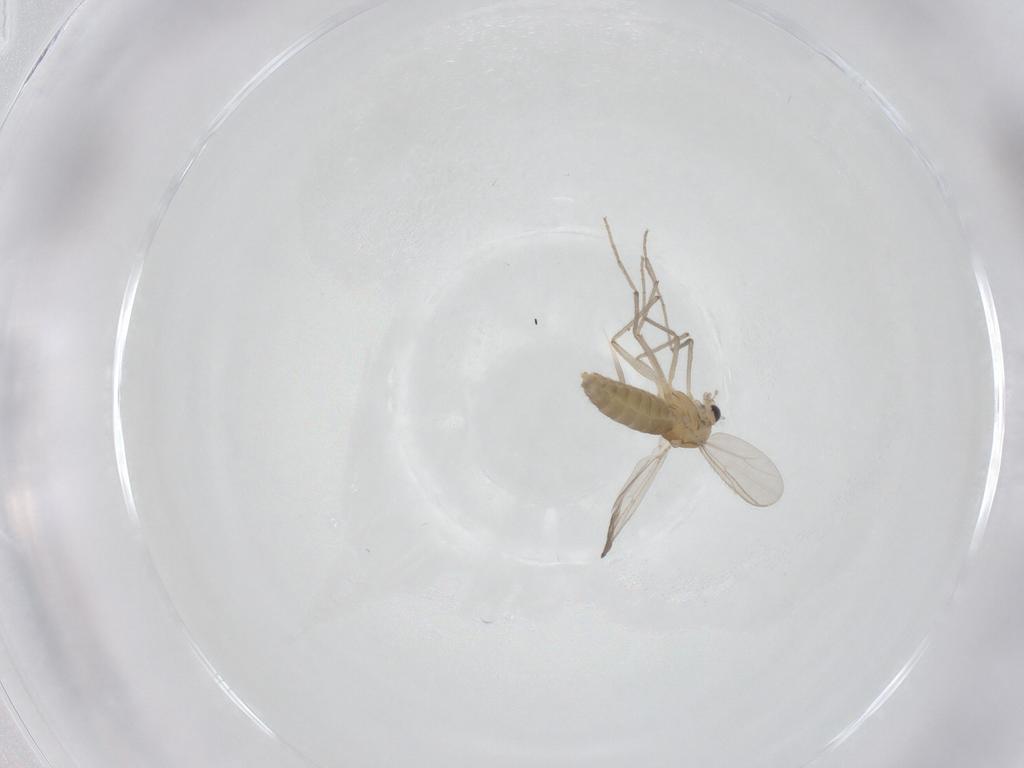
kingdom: Animalia
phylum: Arthropoda
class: Insecta
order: Diptera
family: Chironomidae
